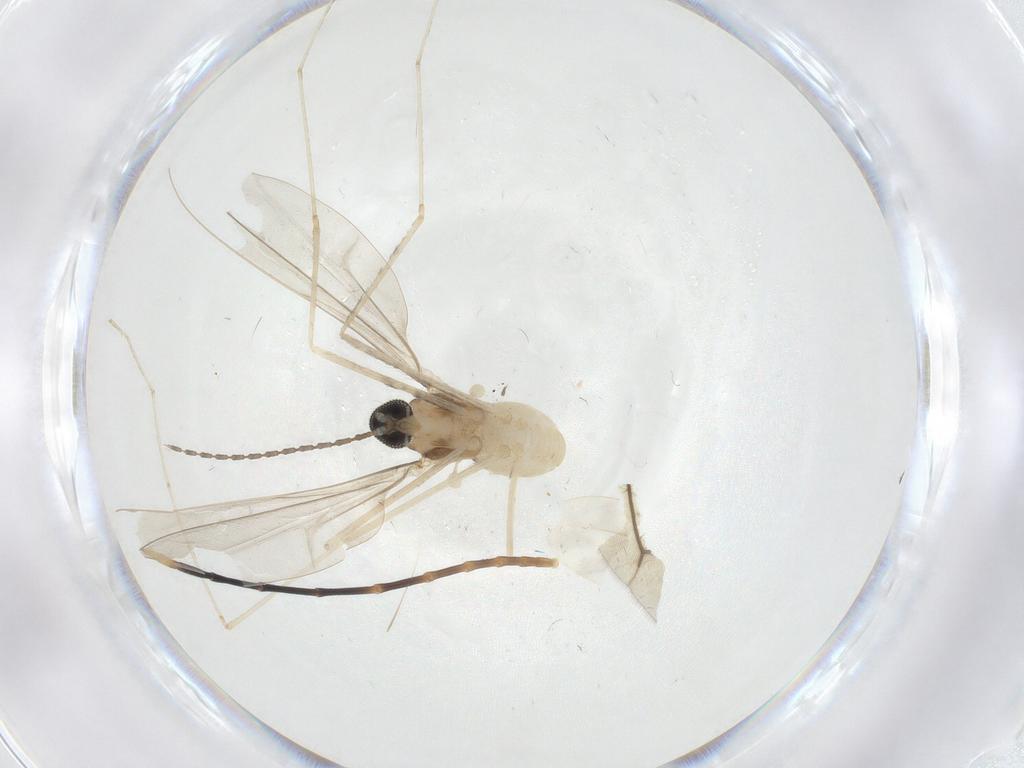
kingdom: Animalia
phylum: Arthropoda
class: Insecta
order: Diptera
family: Cecidomyiidae
